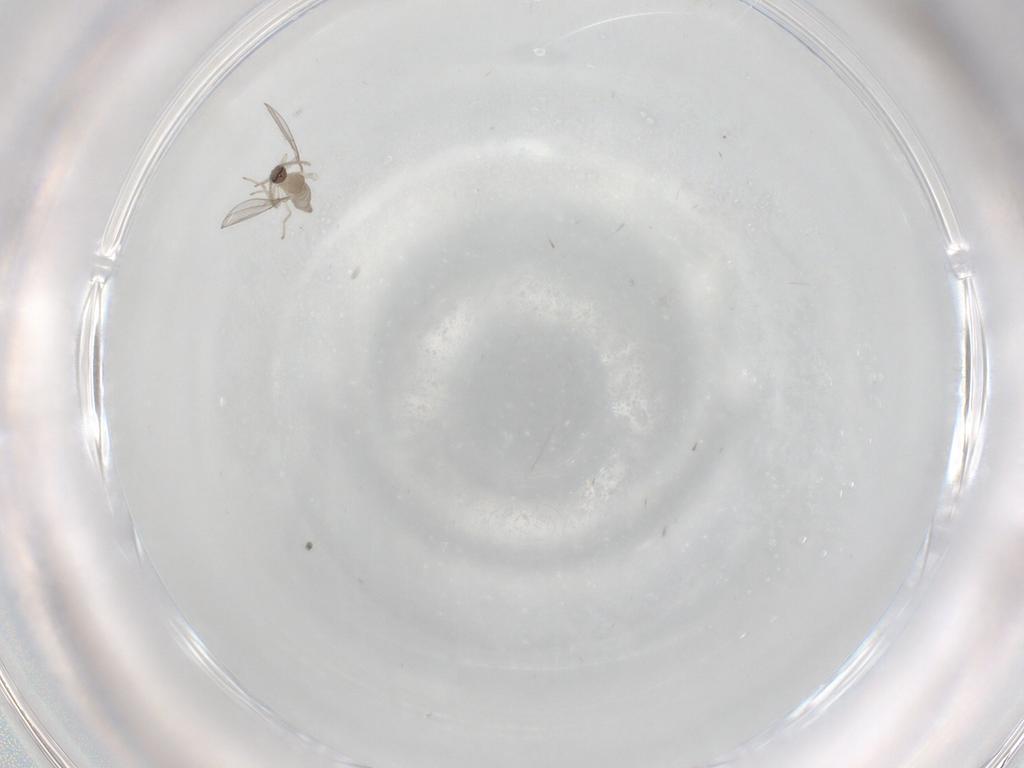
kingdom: Animalia
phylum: Arthropoda
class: Insecta
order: Diptera
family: Cecidomyiidae
